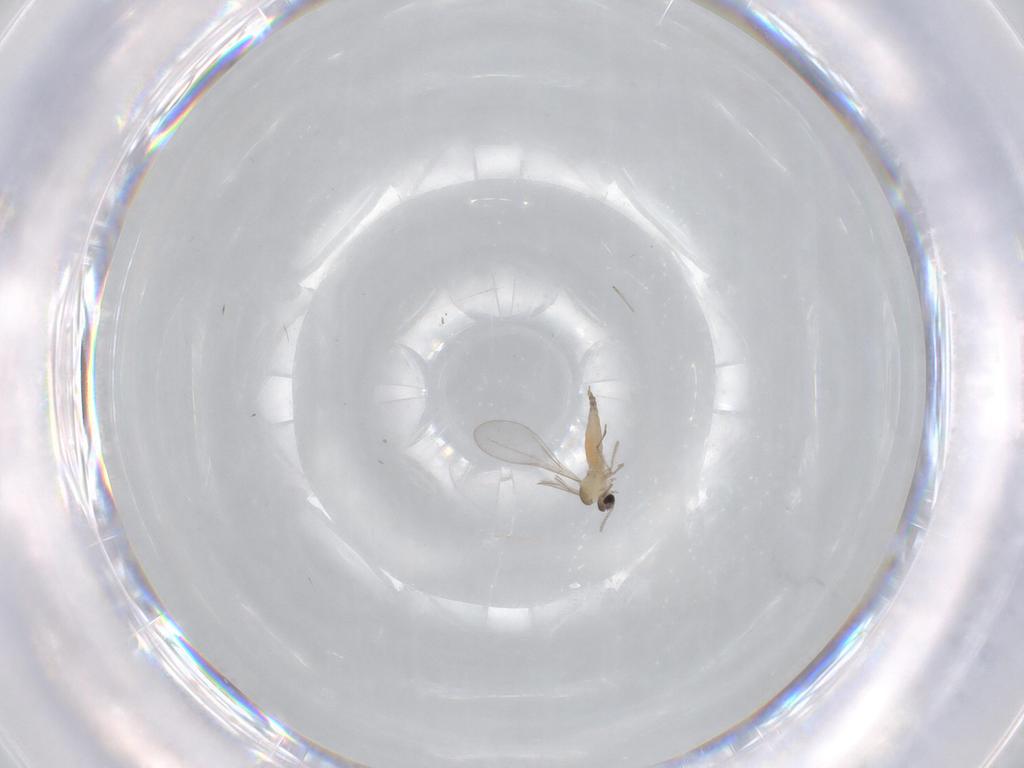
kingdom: Animalia
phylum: Arthropoda
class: Insecta
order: Diptera
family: Cecidomyiidae
